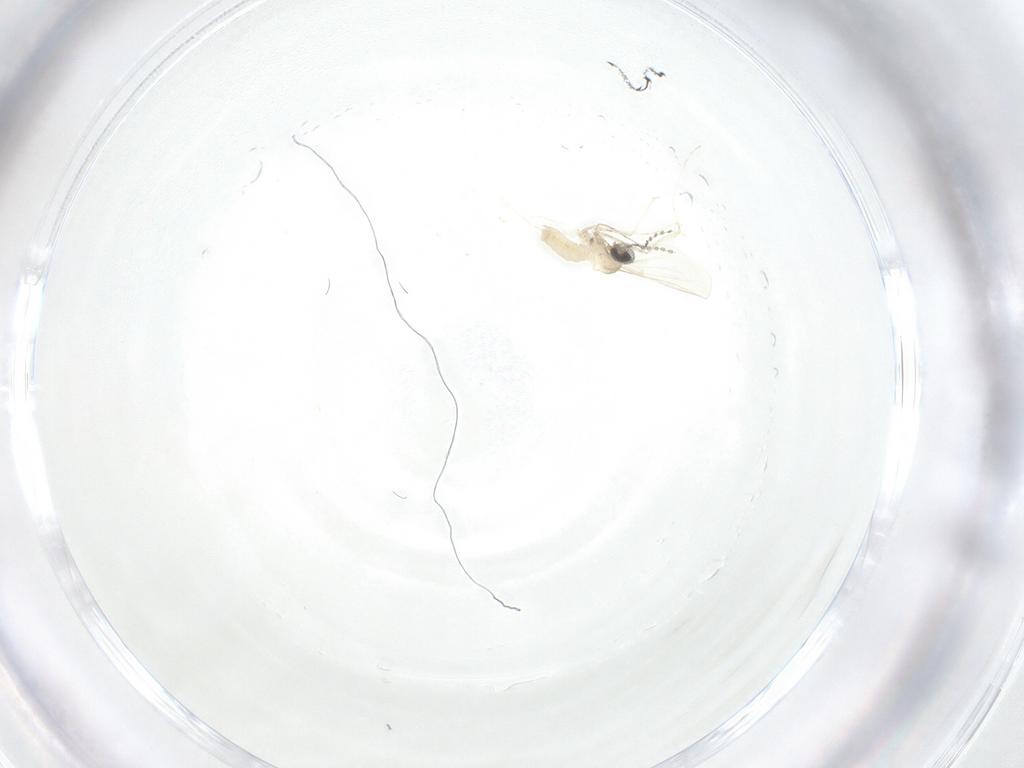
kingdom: Animalia
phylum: Arthropoda
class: Insecta
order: Diptera
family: Cecidomyiidae
